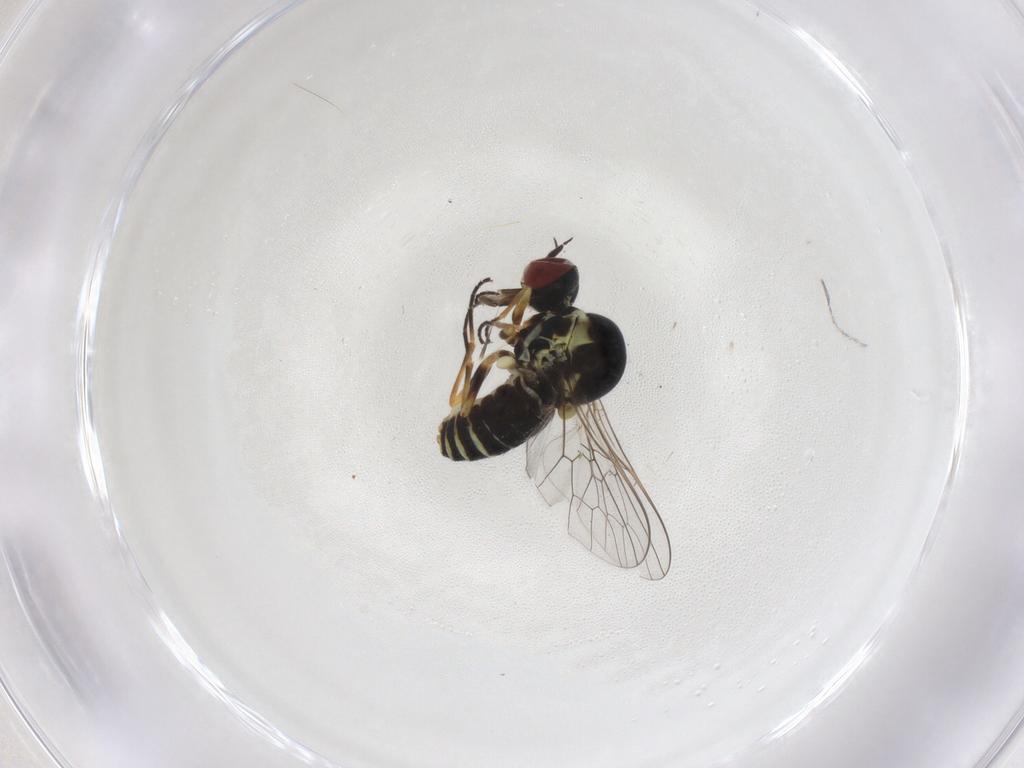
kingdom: Animalia
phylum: Arthropoda
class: Insecta
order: Diptera
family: Bombyliidae
